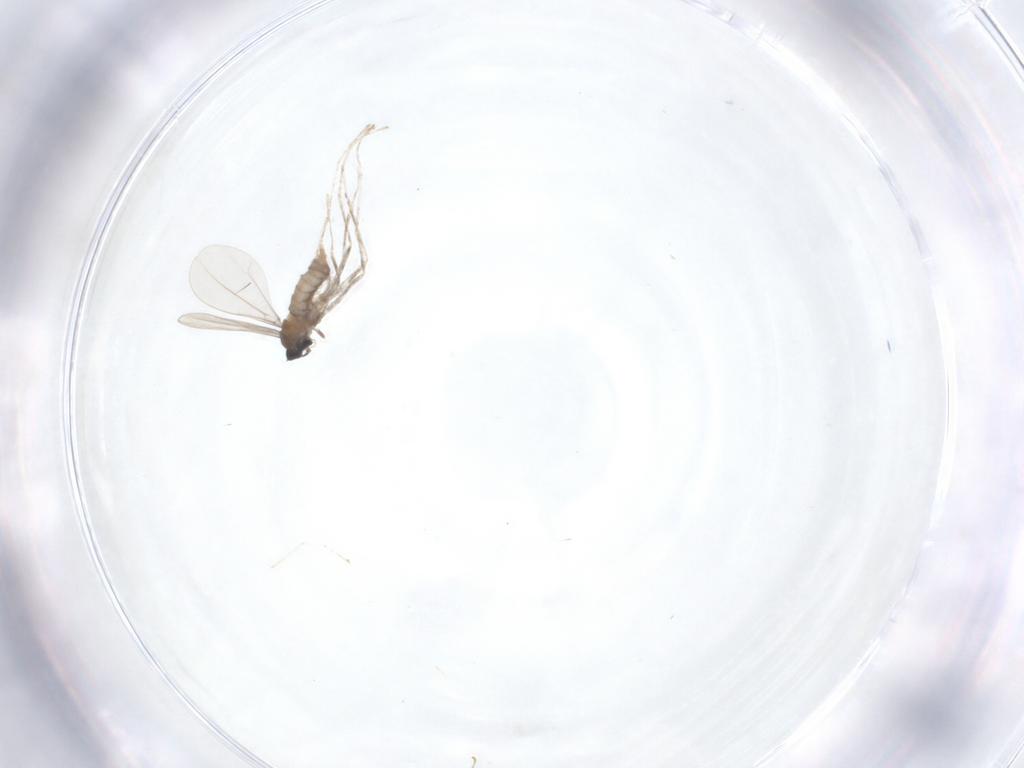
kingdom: Animalia
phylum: Arthropoda
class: Insecta
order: Diptera
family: Cecidomyiidae
